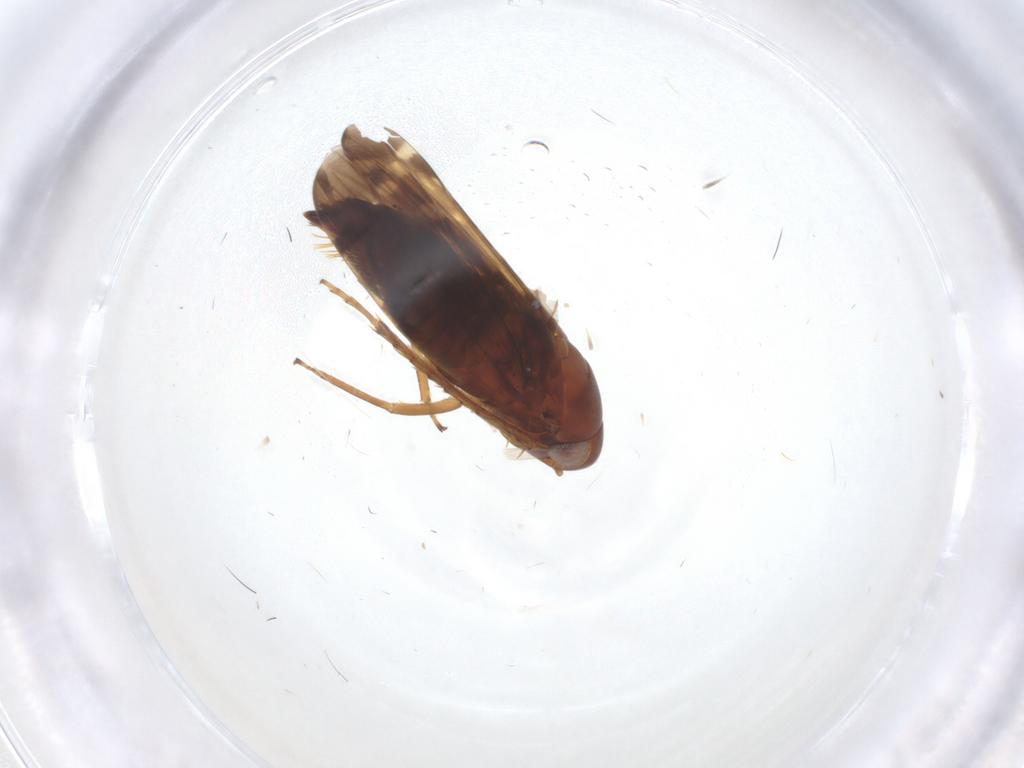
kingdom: Animalia
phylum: Arthropoda
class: Insecta
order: Hemiptera
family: Cicadellidae
